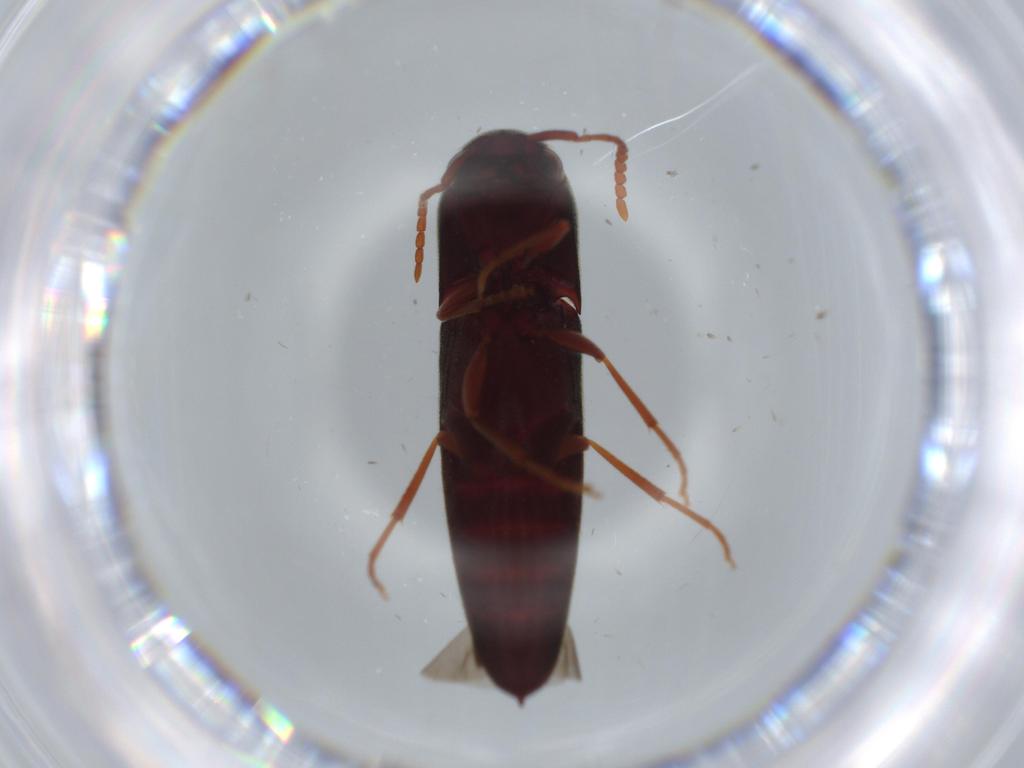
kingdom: Animalia
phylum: Arthropoda
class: Insecta
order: Coleoptera
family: Eucnemidae
